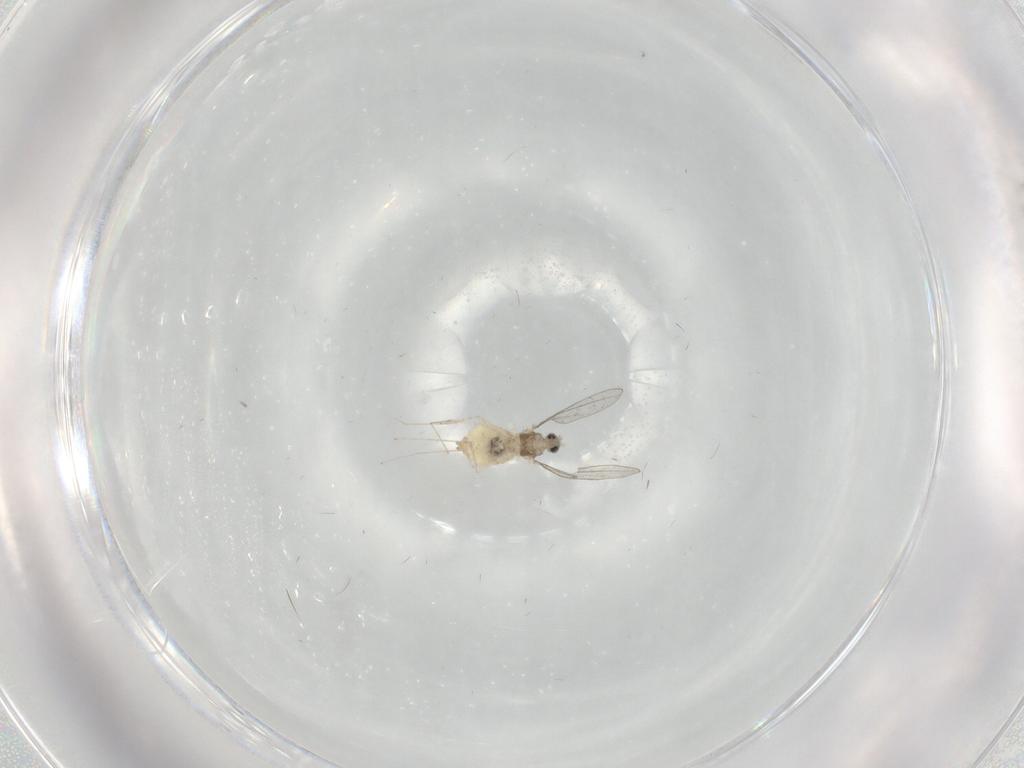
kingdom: Animalia
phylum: Arthropoda
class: Insecta
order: Diptera
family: Cecidomyiidae
